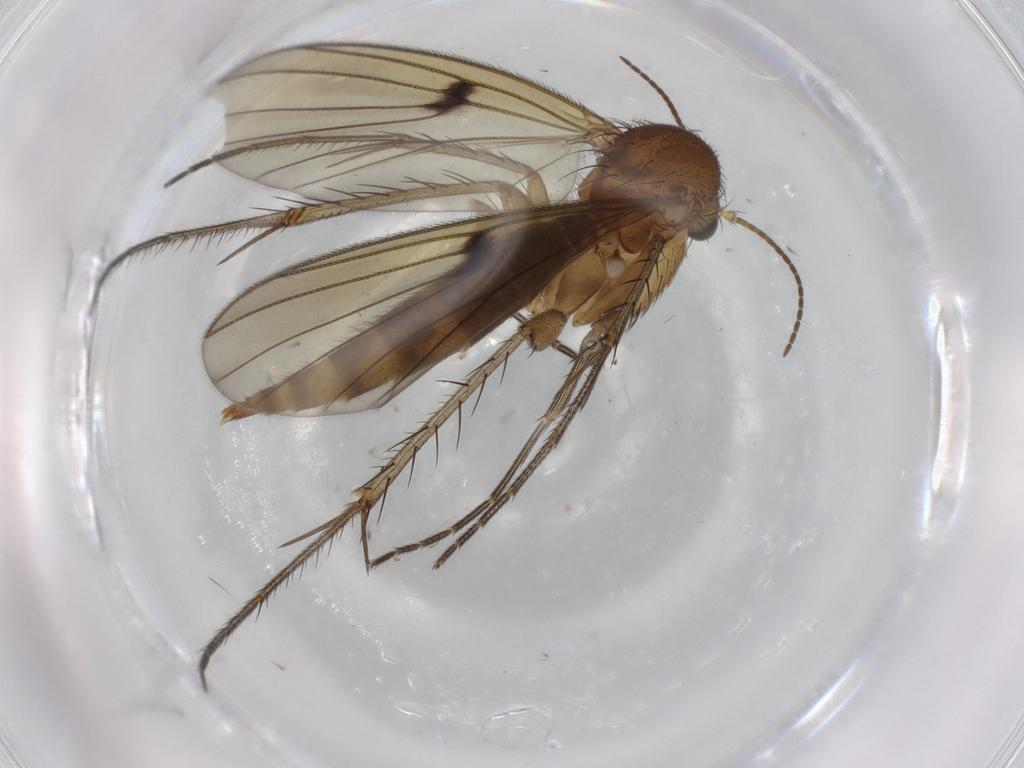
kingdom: Animalia
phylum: Arthropoda
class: Insecta
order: Diptera
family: Mycetophilidae
